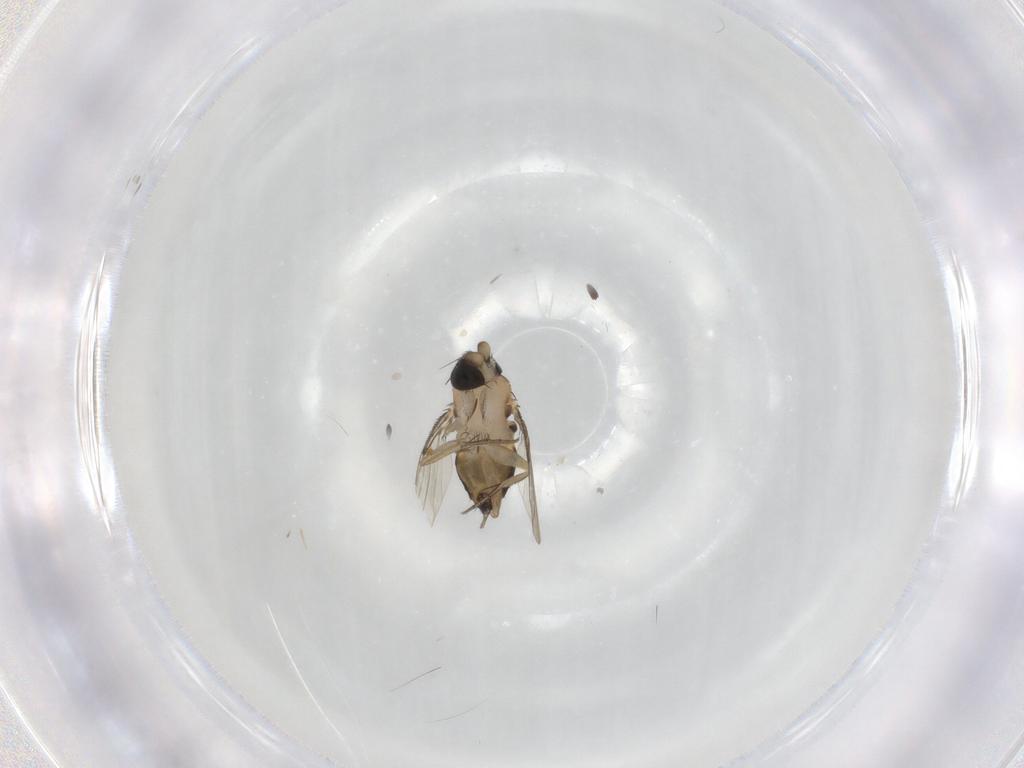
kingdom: Animalia
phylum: Arthropoda
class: Insecta
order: Diptera
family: Phoridae
